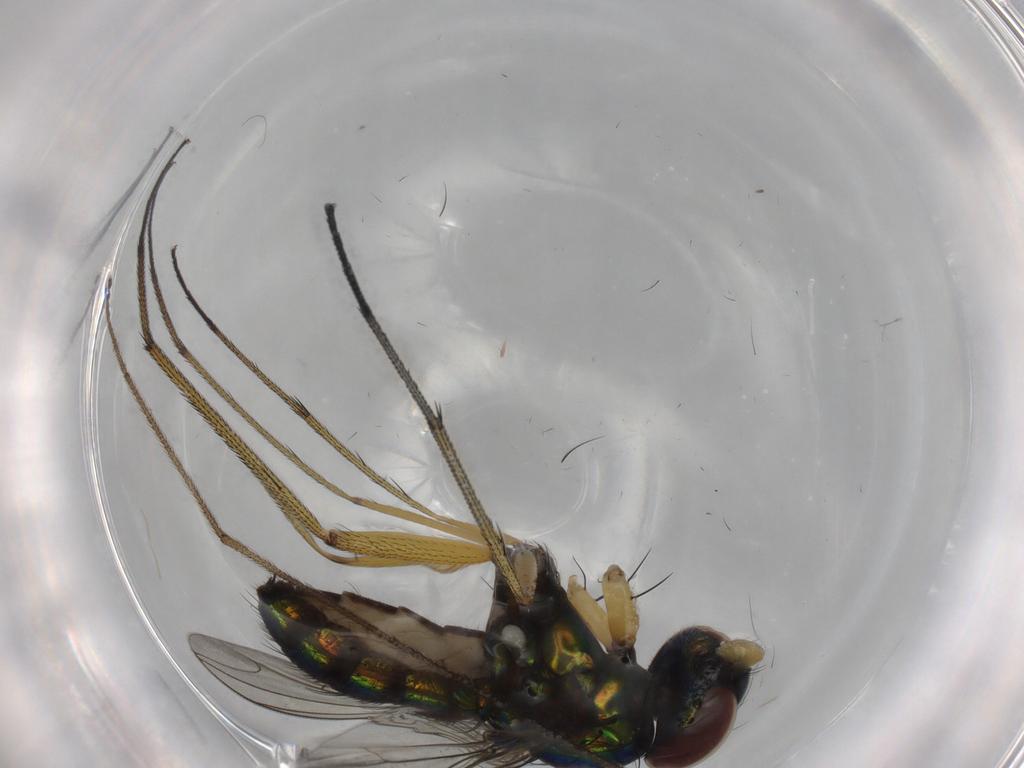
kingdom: Animalia
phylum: Arthropoda
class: Insecta
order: Diptera
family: Dolichopodidae
